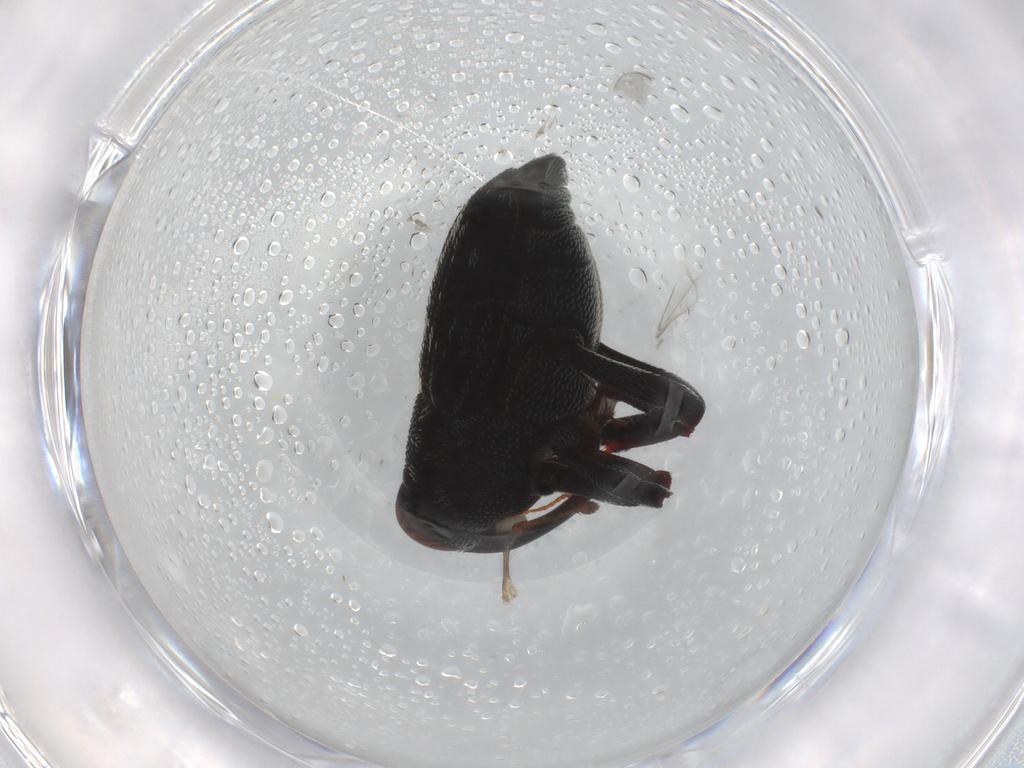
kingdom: Animalia
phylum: Arthropoda
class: Insecta
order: Coleoptera
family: Curculionidae
